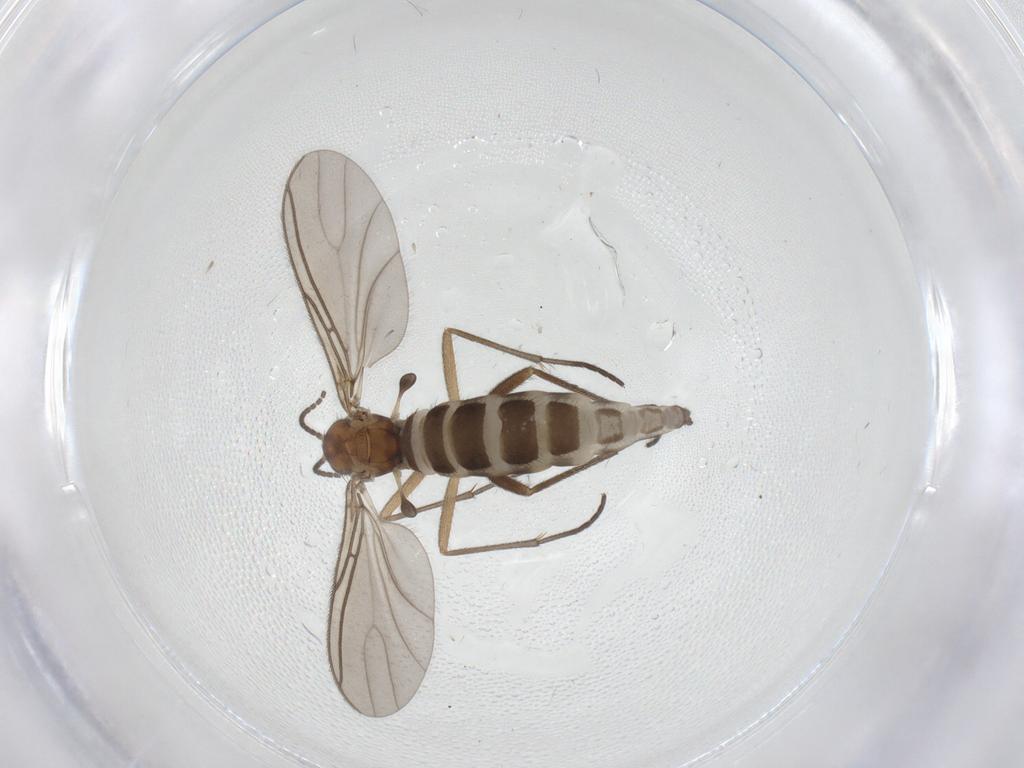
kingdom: Animalia
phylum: Arthropoda
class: Insecta
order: Diptera
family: Sciaridae
